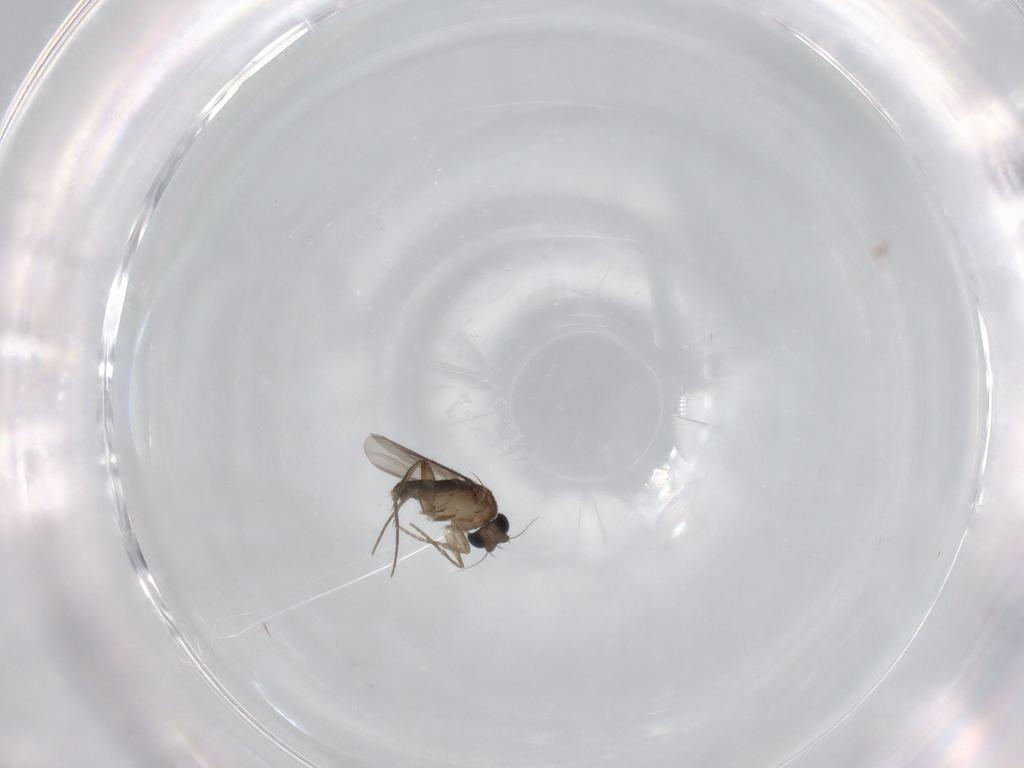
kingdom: Animalia
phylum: Arthropoda
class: Insecta
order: Diptera
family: Phoridae
